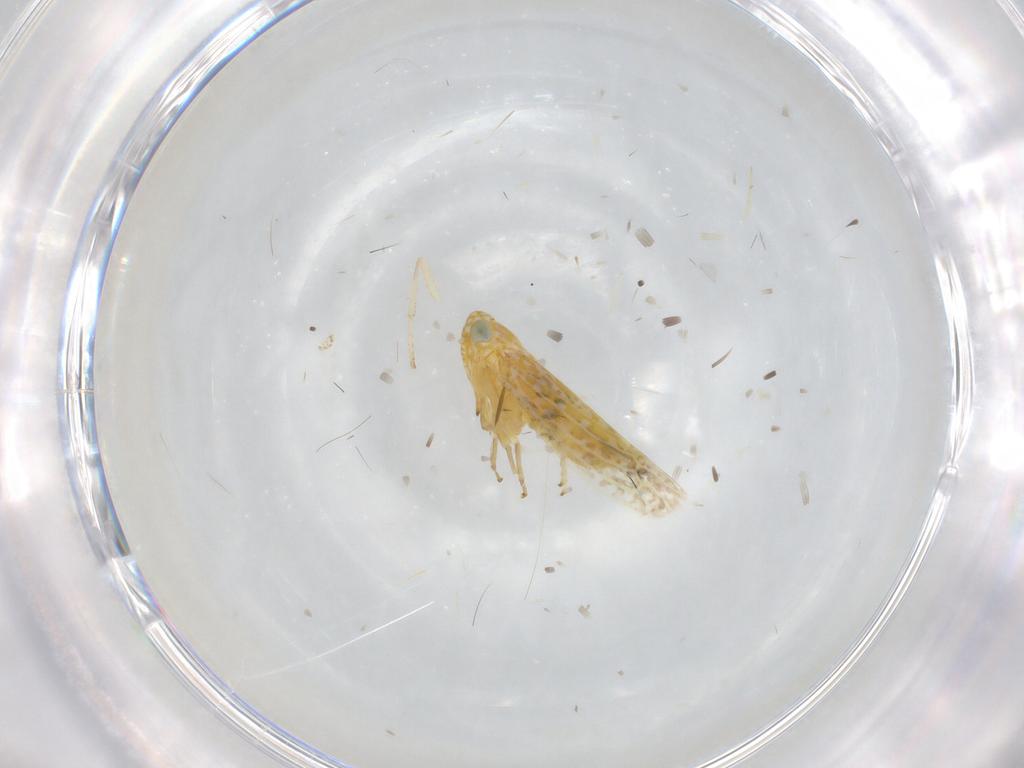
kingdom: Animalia
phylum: Arthropoda
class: Insecta
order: Hemiptera
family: Cicadellidae
